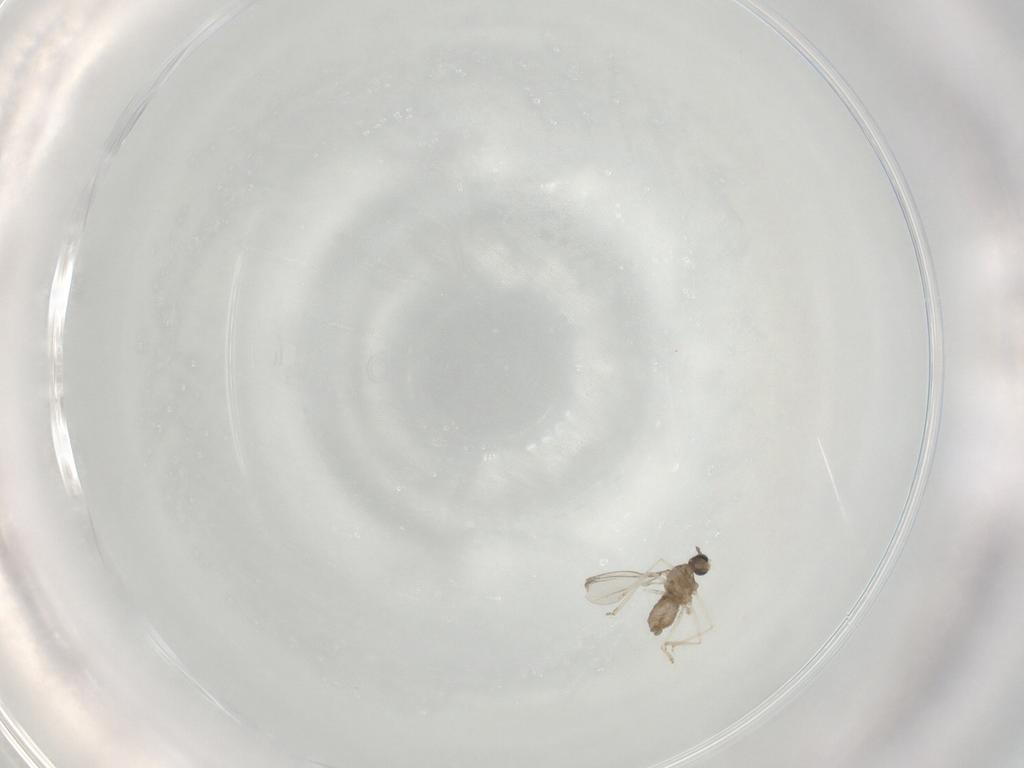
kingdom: Animalia
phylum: Arthropoda
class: Insecta
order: Diptera
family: Cecidomyiidae
